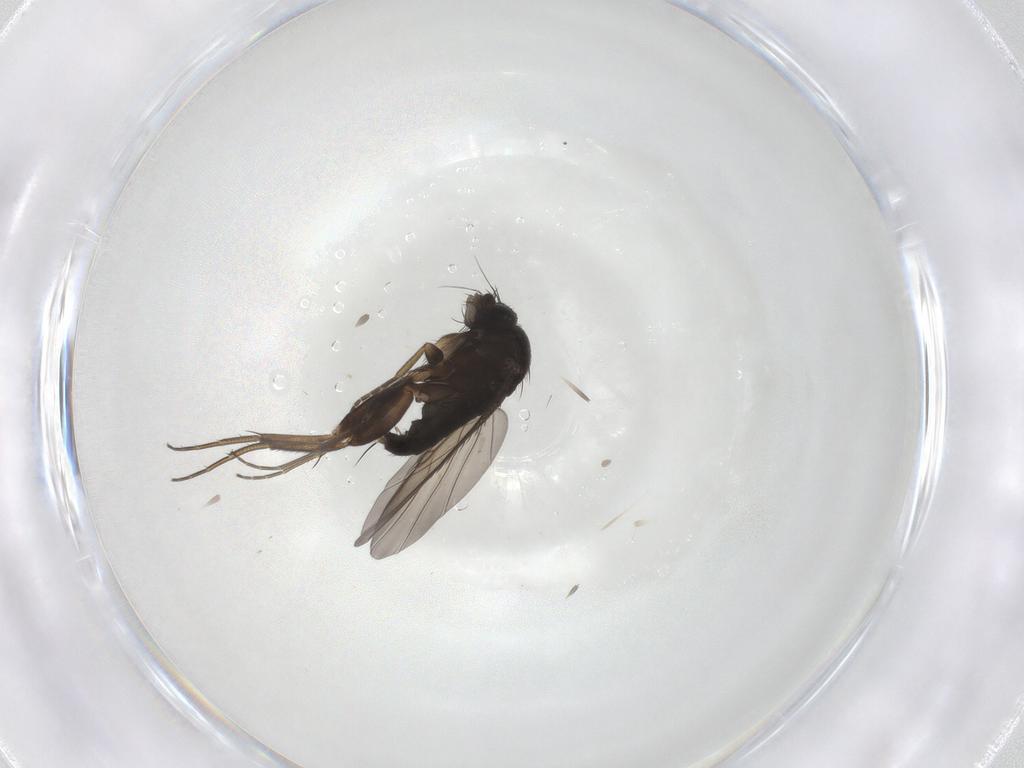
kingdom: Animalia
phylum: Arthropoda
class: Insecta
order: Diptera
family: Phoridae
